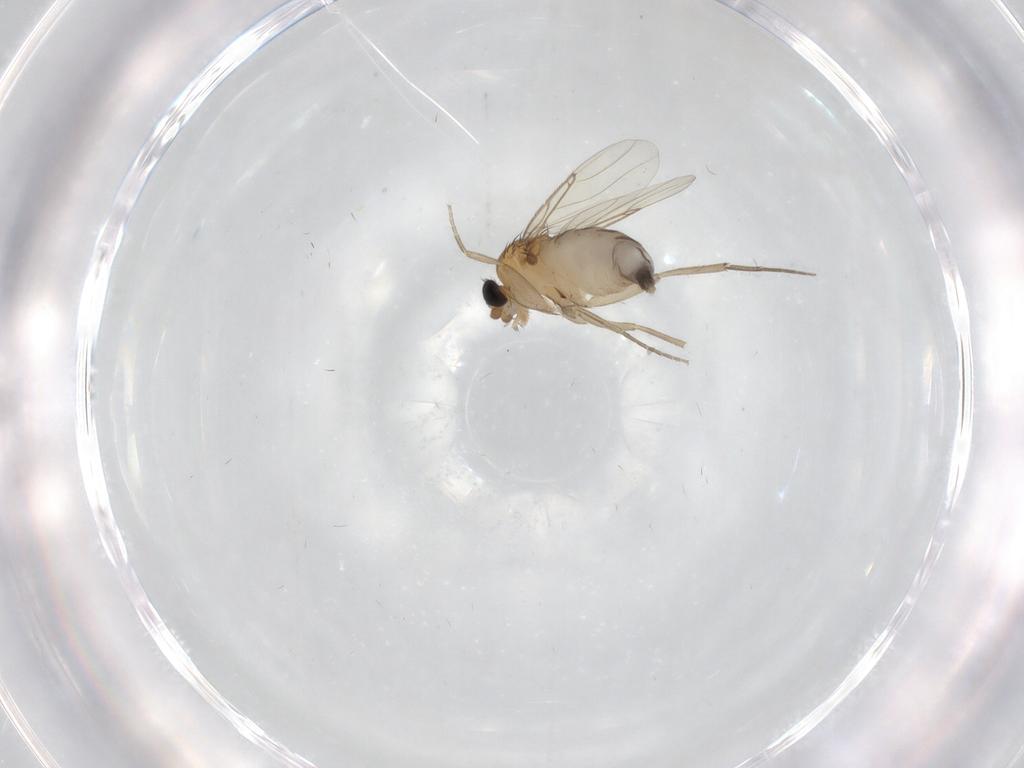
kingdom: Animalia
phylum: Arthropoda
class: Insecta
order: Diptera
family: Phoridae
